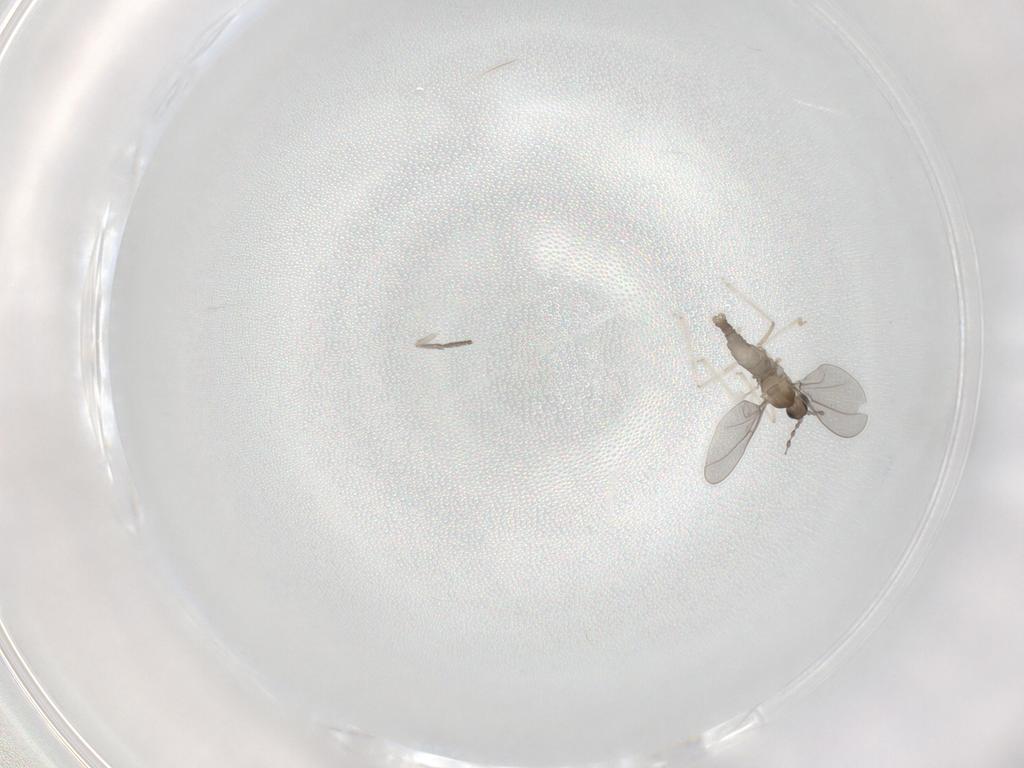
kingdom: Animalia
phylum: Arthropoda
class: Insecta
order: Diptera
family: Cecidomyiidae
